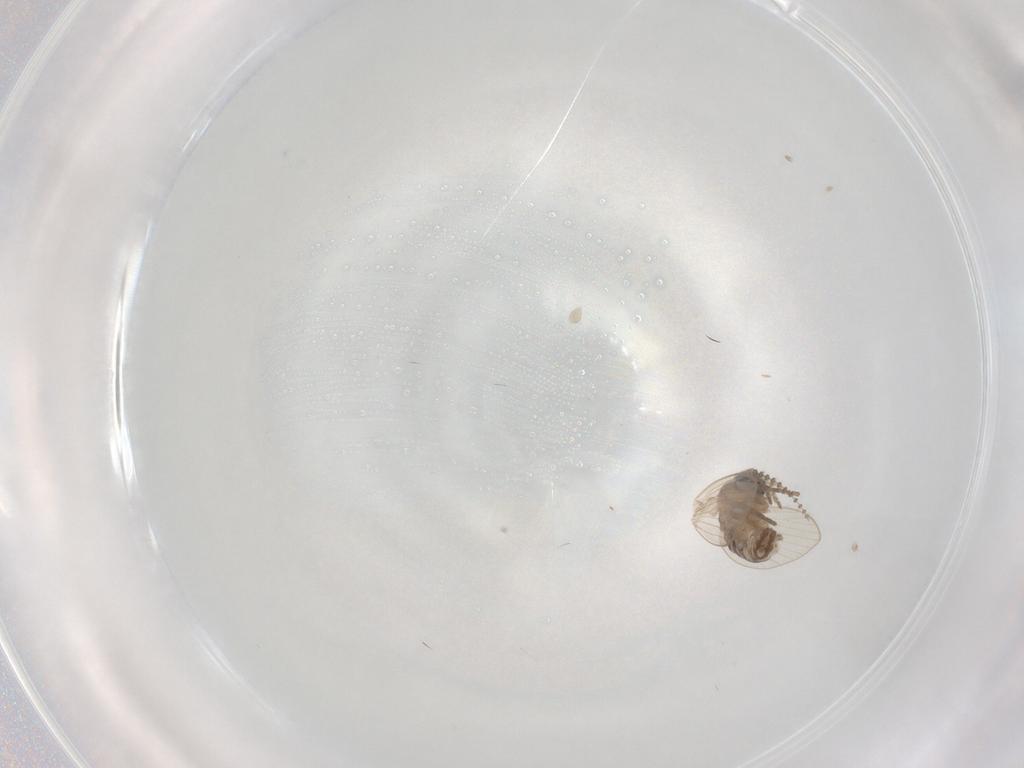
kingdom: Animalia
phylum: Arthropoda
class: Insecta
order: Diptera
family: Psychodidae
